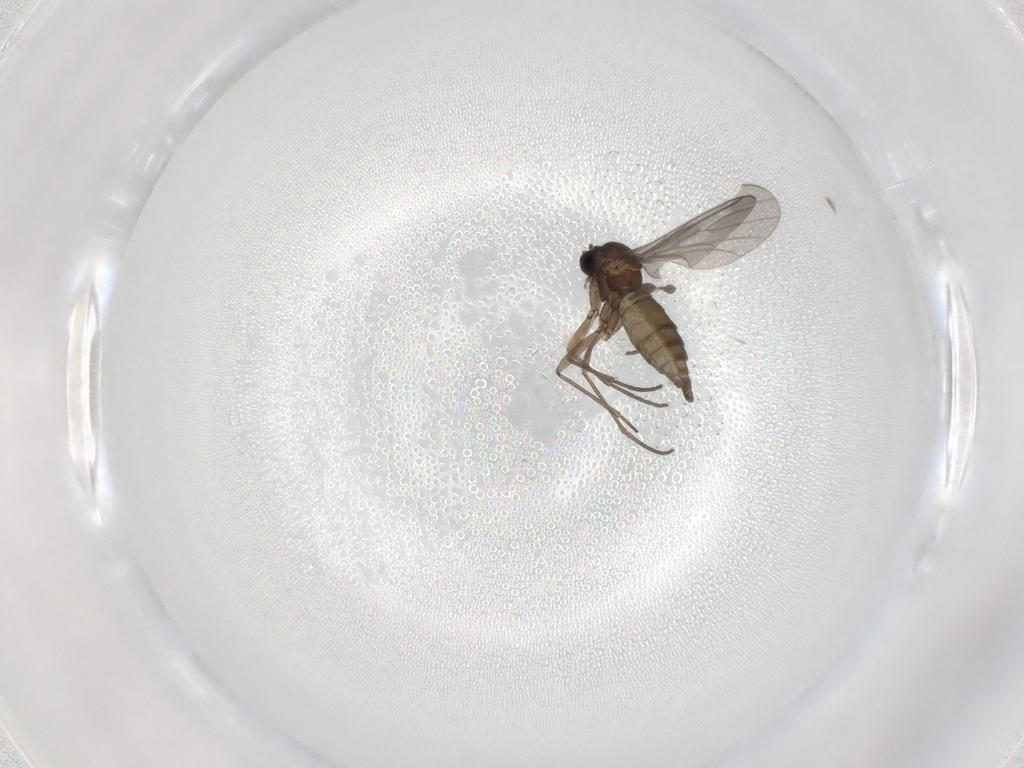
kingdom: Animalia
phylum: Arthropoda
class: Insecta
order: Diptera
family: Sciaridae
